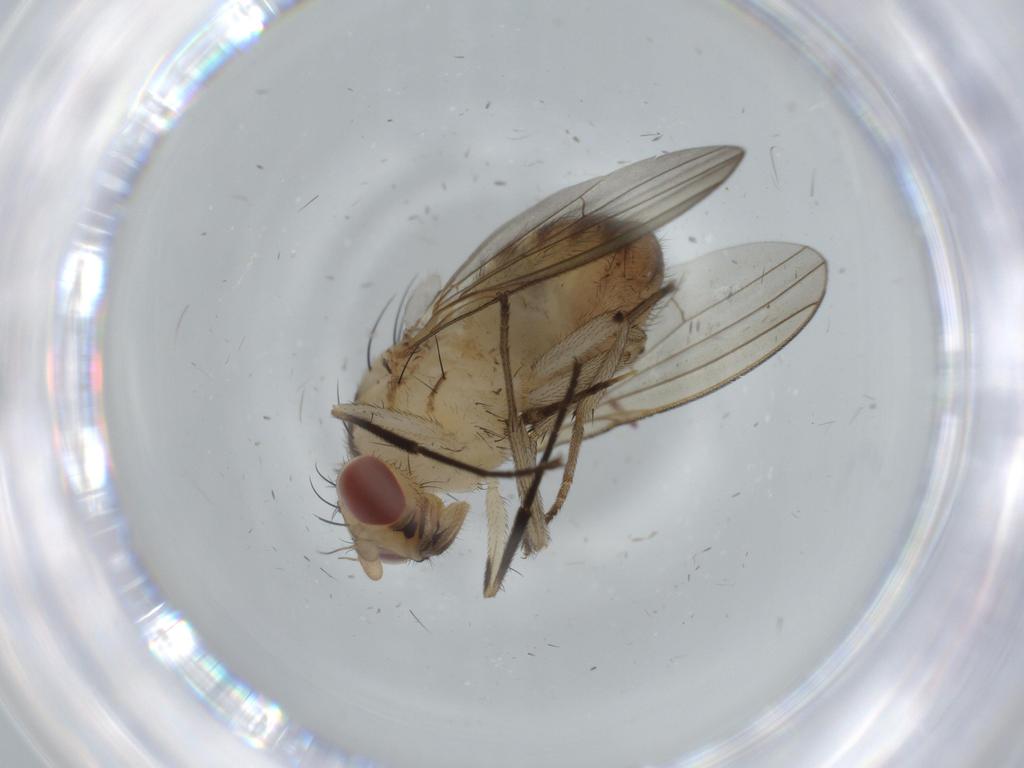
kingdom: Animalia
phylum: Arthropoda
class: Insecta
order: Diptera
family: Sciaridae
